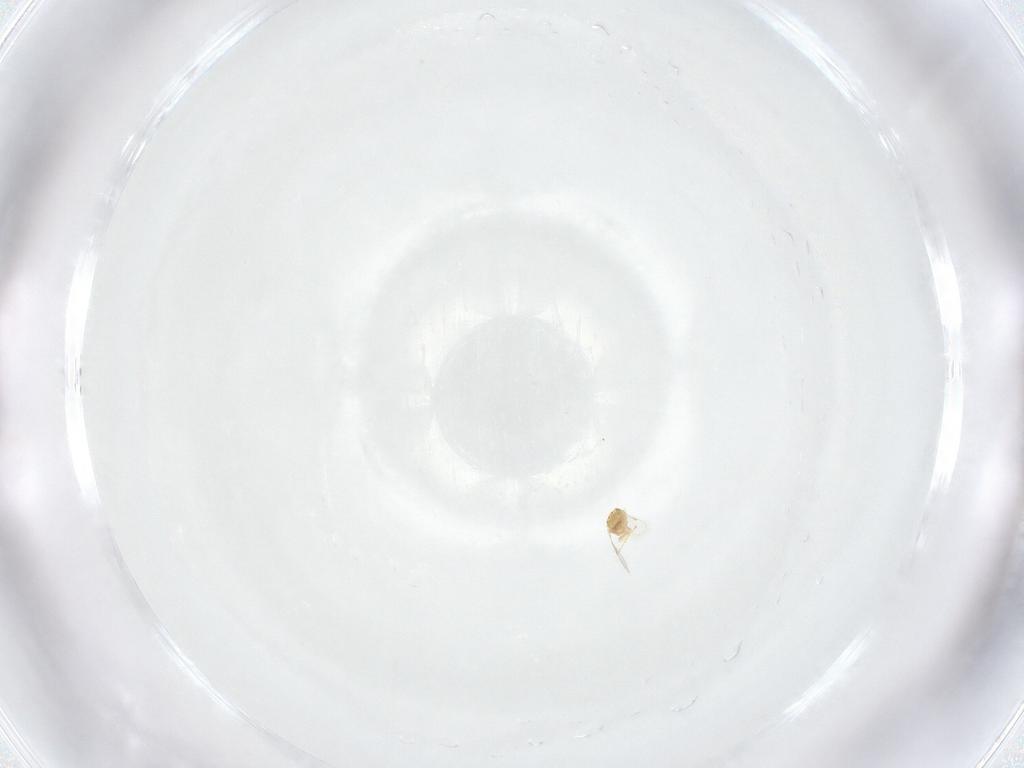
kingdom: Animalia
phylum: Arthropoda
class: Insecta
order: Hymenoptera
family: Aphelinidae
